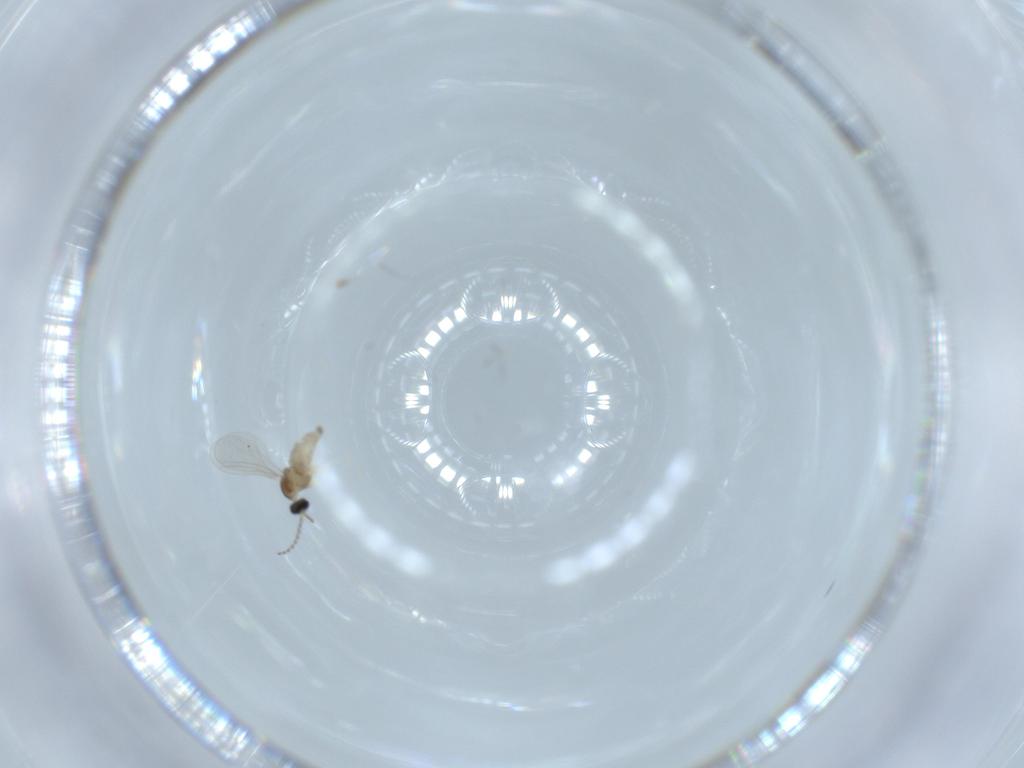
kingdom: Animalia
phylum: Arthropoda
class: Insecta
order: Diptera
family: Cecidomyiidae
